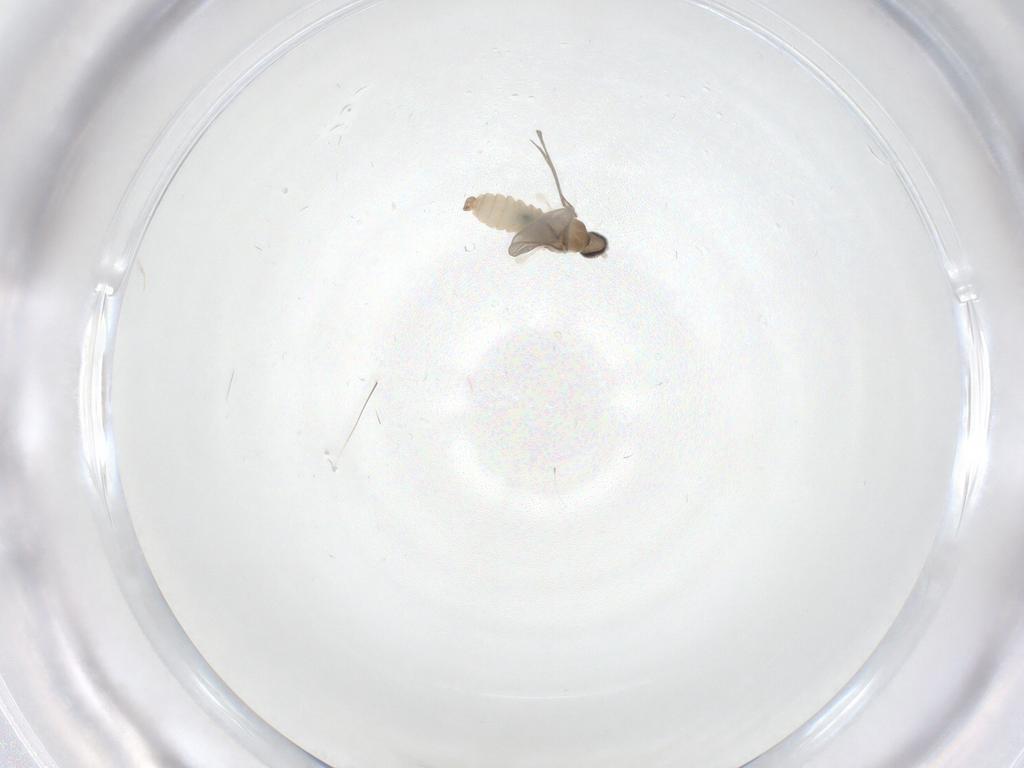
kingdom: Animalia
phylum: Arthropoda
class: Insecta
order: Diptera
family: Cecidomyiidae
